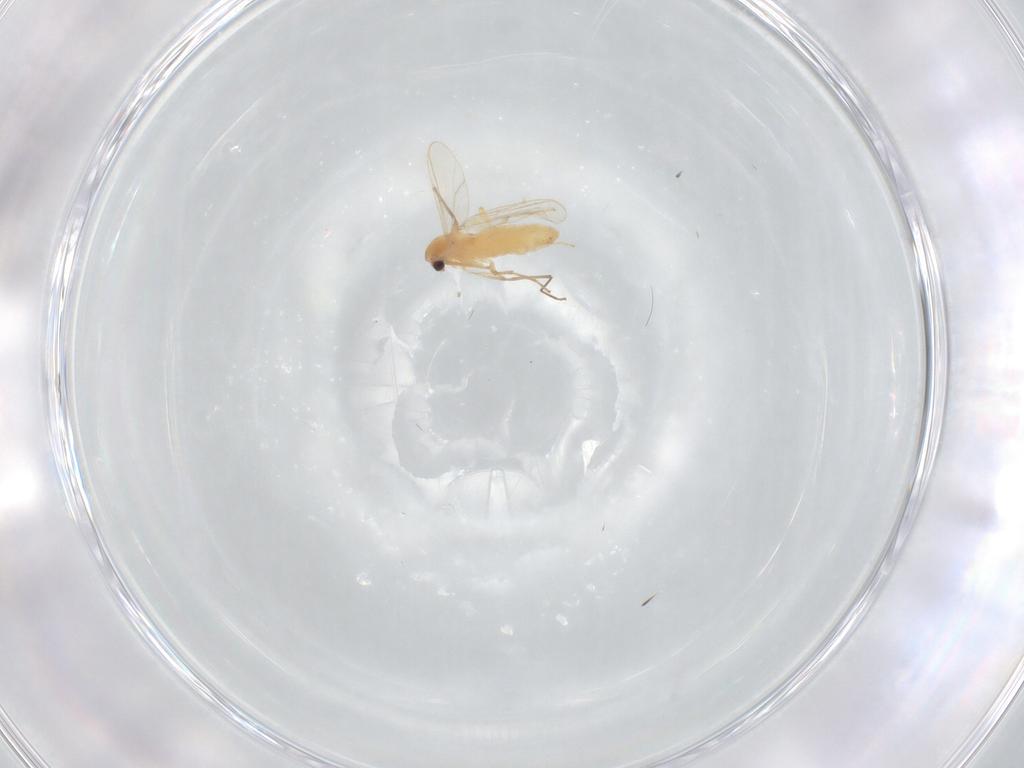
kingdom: Animalia
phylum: Arthropoda
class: Insecta
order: Diptera
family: Chironomidae
